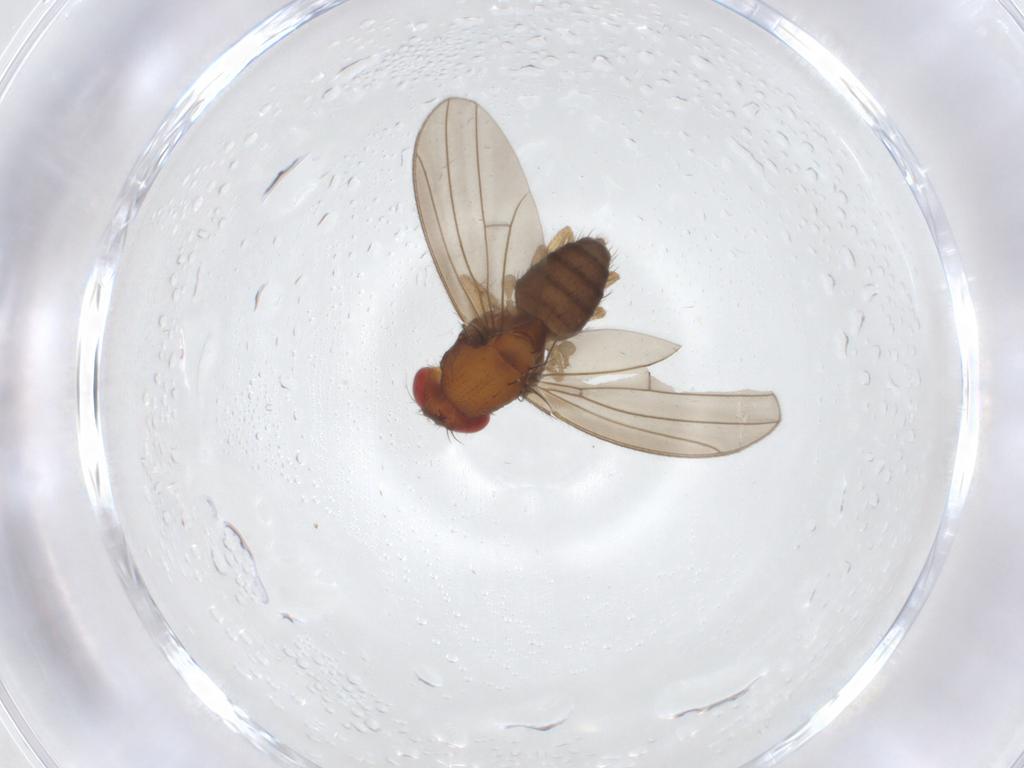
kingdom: Animalia
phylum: Arthropoda
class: Insecta
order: Diptera
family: Drosophilidae
